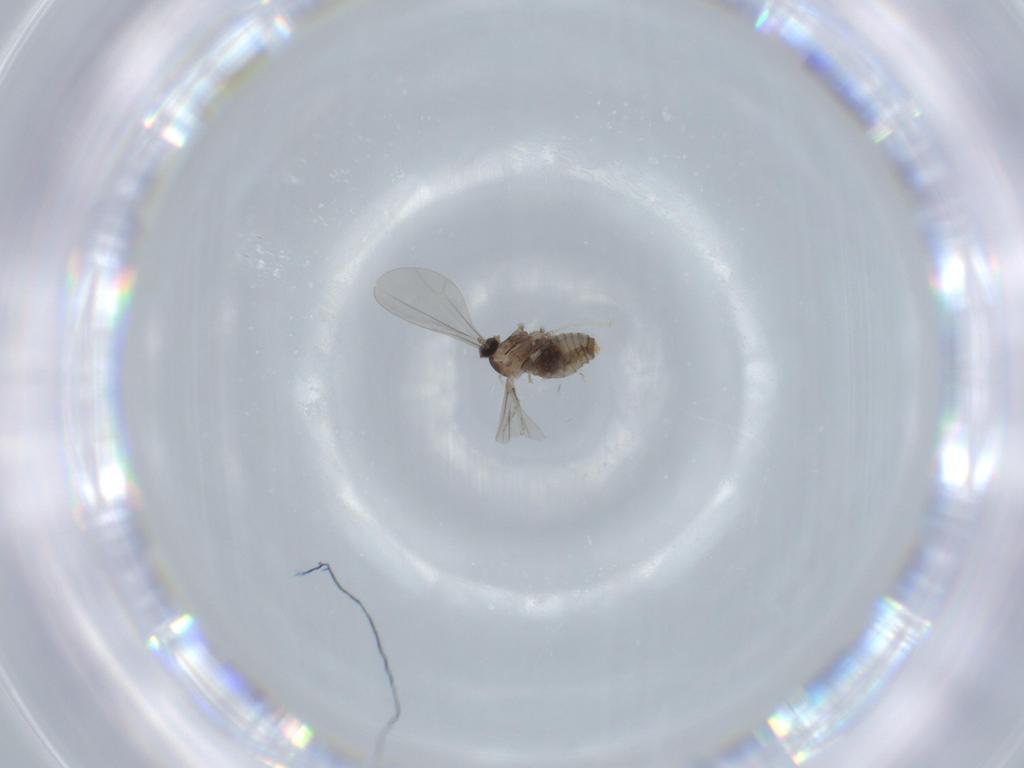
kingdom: Animalia
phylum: Arthropoda
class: Insecta
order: Diptera
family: Cecidomyiidae
